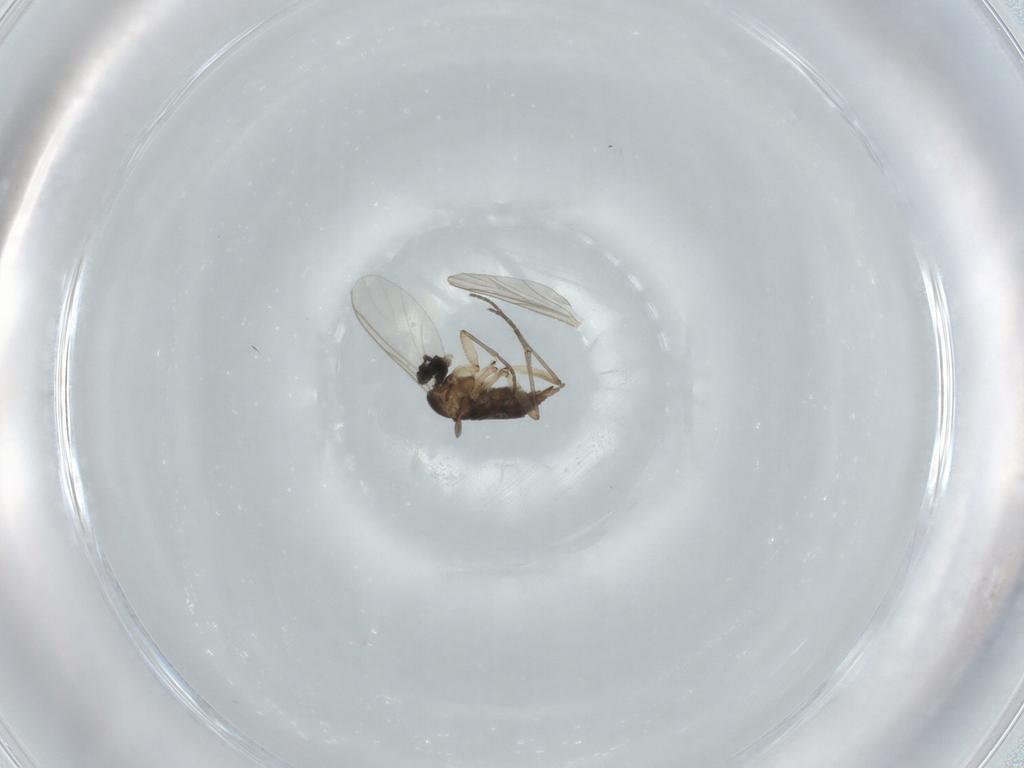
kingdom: Animalia
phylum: Arthropoda
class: Insecta
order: Diptera
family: Sciaridae
